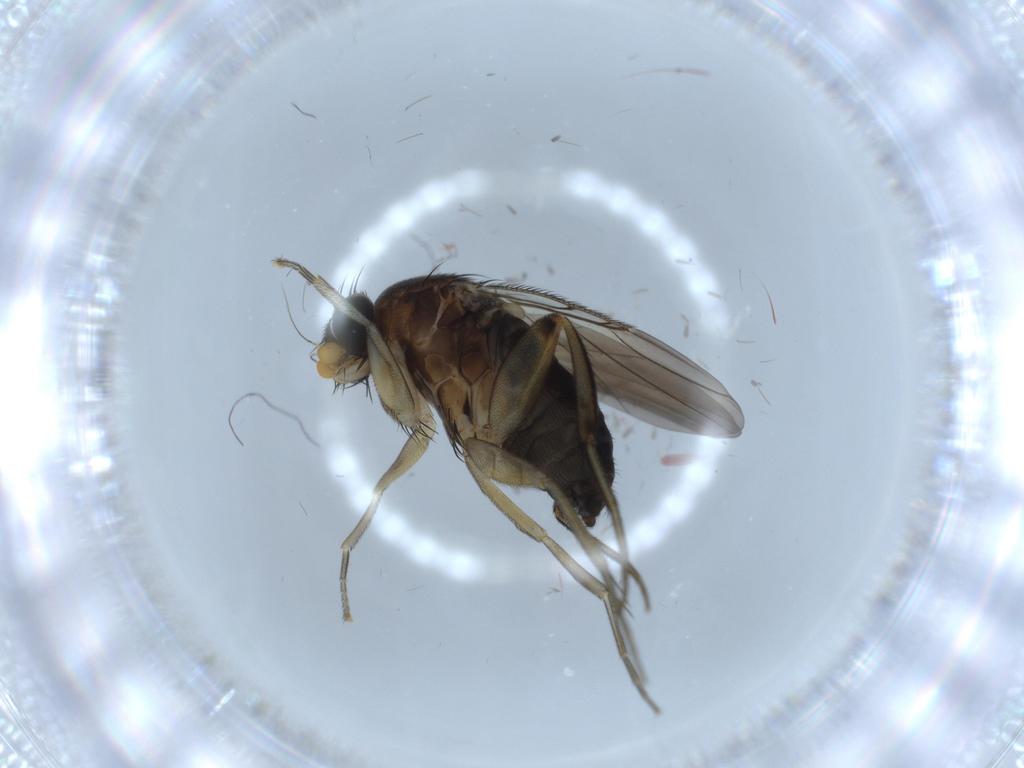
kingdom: Animalia
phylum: Arthropoda
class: Insecta
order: Diptera
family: Phoridae
